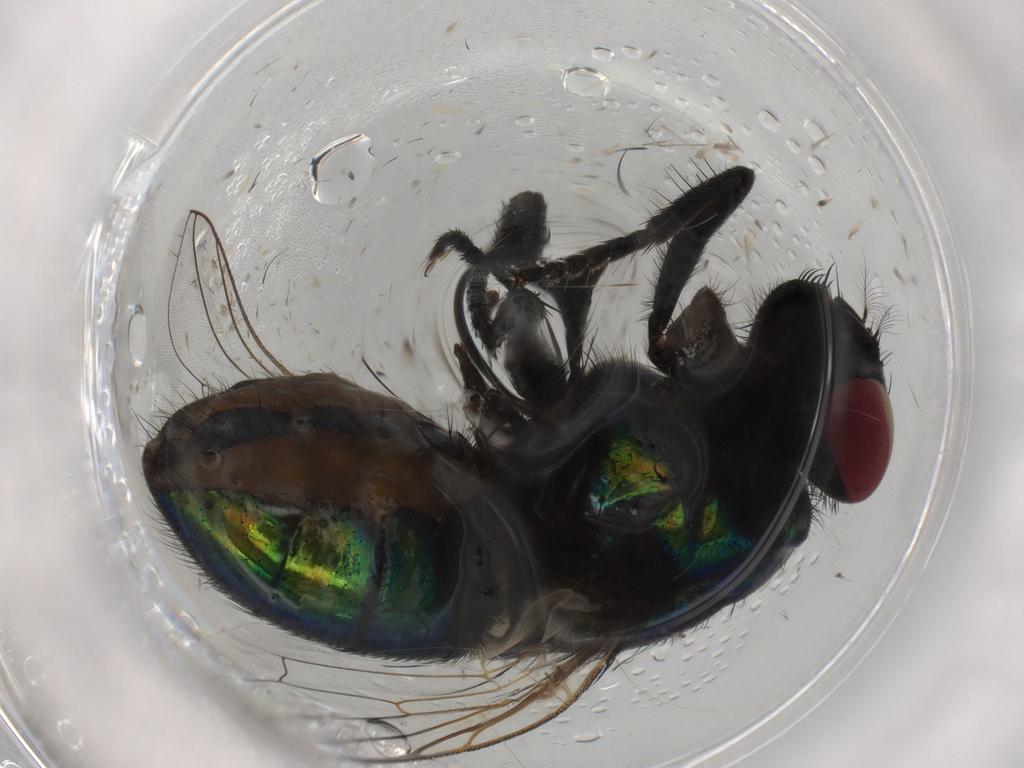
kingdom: Animalia
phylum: Arthropoda
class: Insecta
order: Diptera
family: Muscidae
